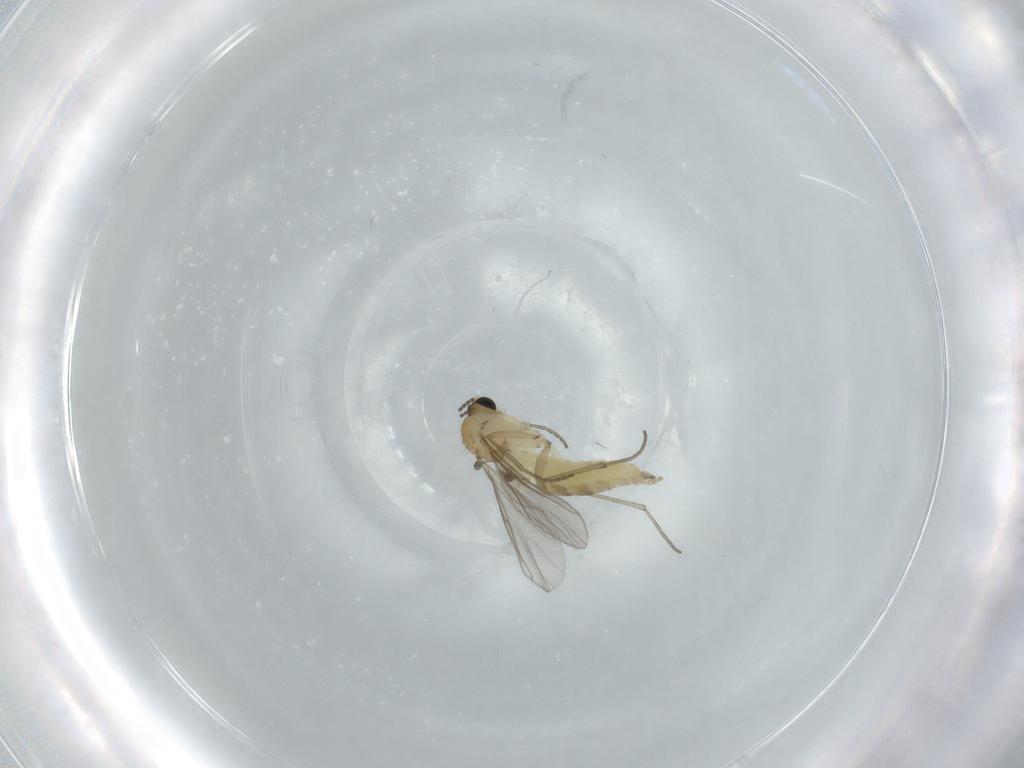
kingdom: Animalia
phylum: Arthropoda
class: Insecta
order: Diptera
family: Sciaridae
